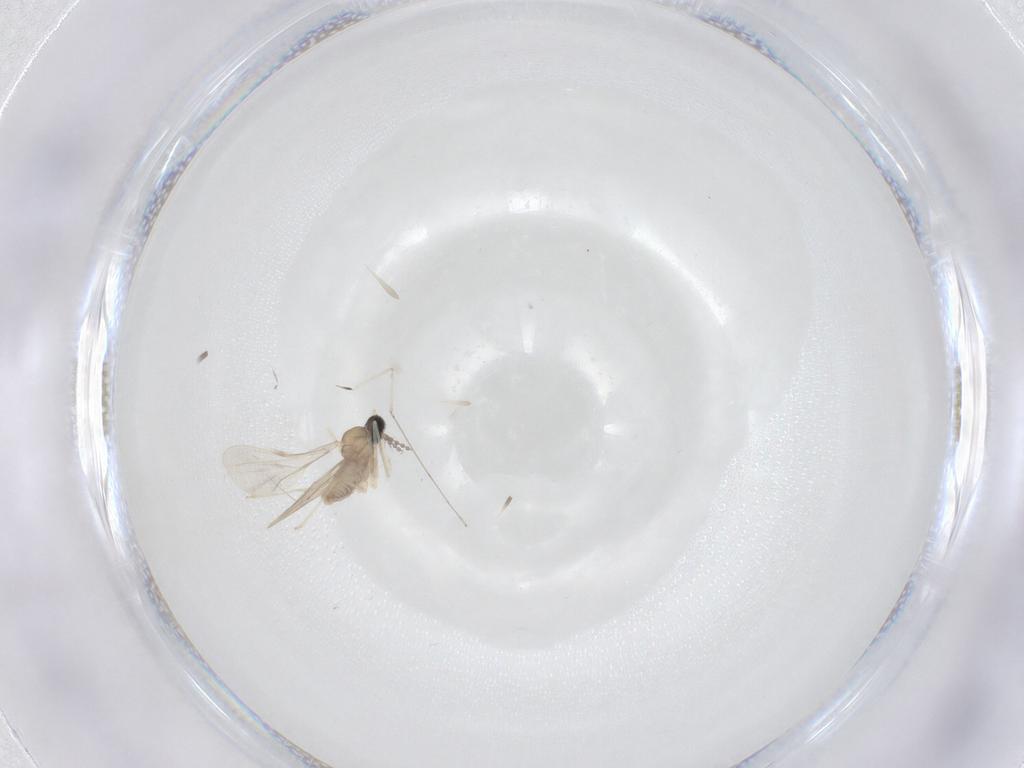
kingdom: Animalia
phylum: Arthropoda
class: Insecta
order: Diptera
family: Cecidomyiidae
